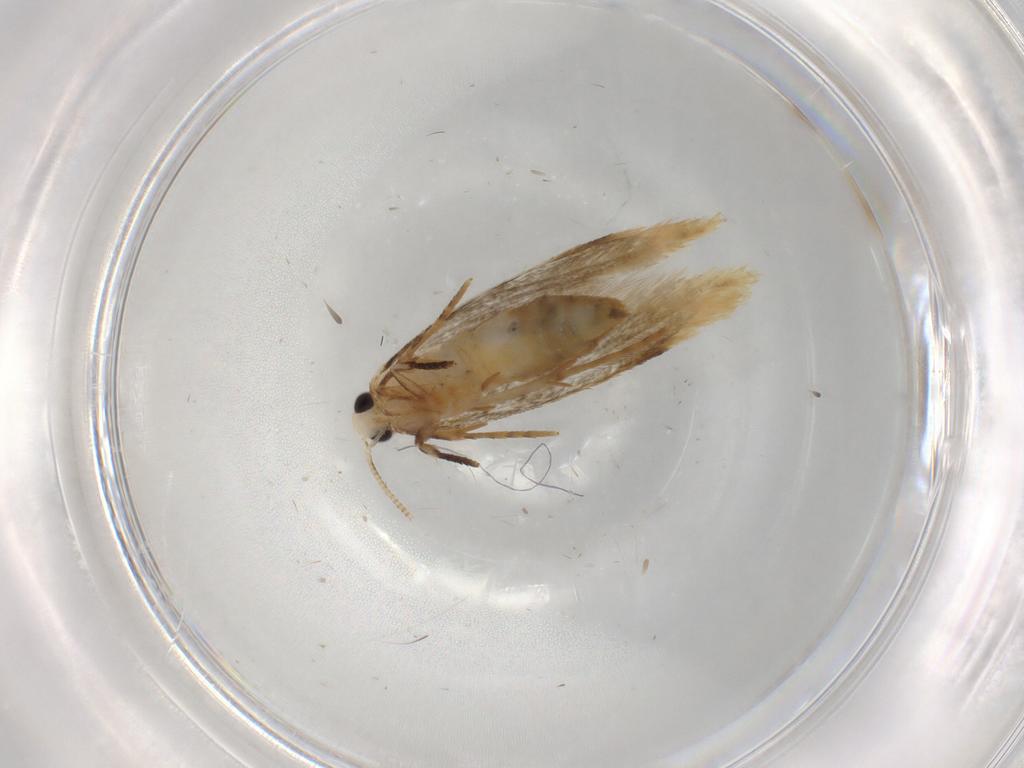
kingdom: Animalia
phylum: Arthropoda
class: Insecta
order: Lepidoptera
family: Tineidae
